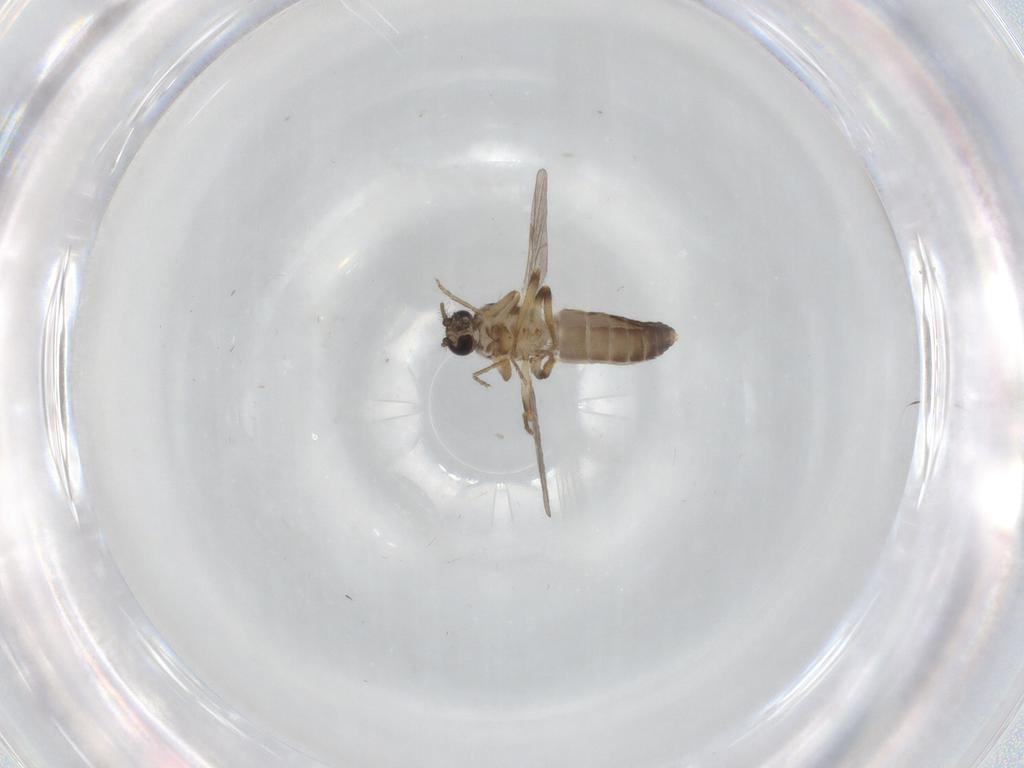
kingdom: Animalia
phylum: Arthropoda
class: Insecta
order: Diptera
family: Ceratopogonidae
